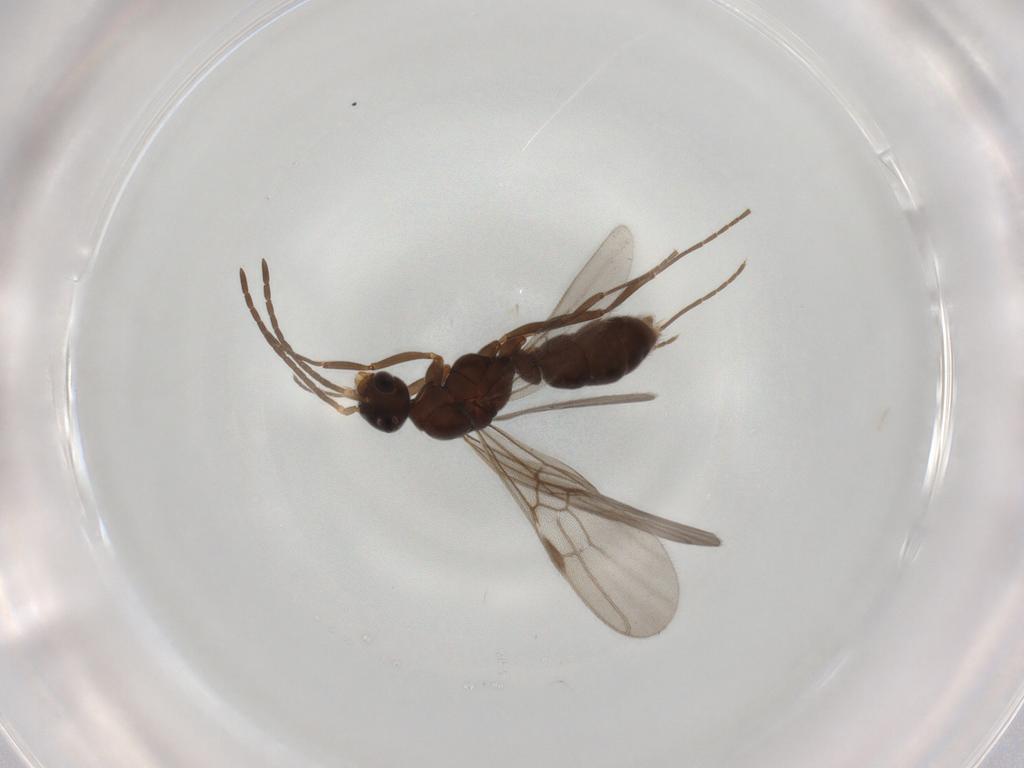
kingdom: Animalia
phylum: Arthropoda
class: Insecta
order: Hymenoptera
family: Formicidae
